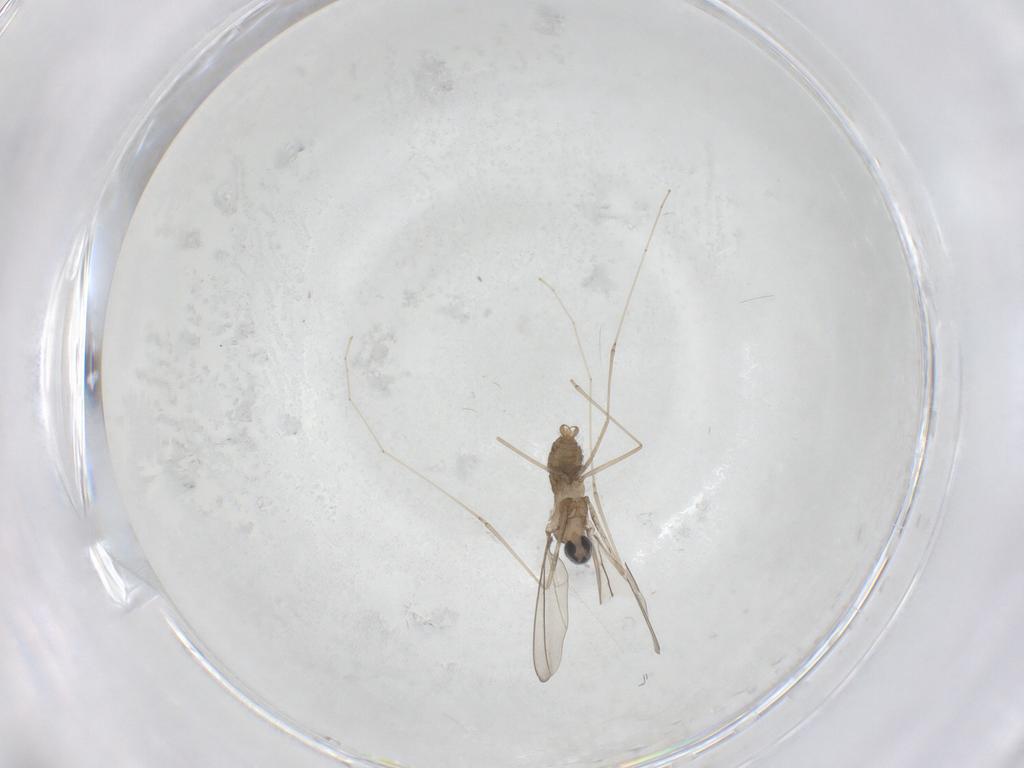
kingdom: Animalia
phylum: Arthropoda
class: Insecta
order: Diptera
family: Cecidomyiidae
